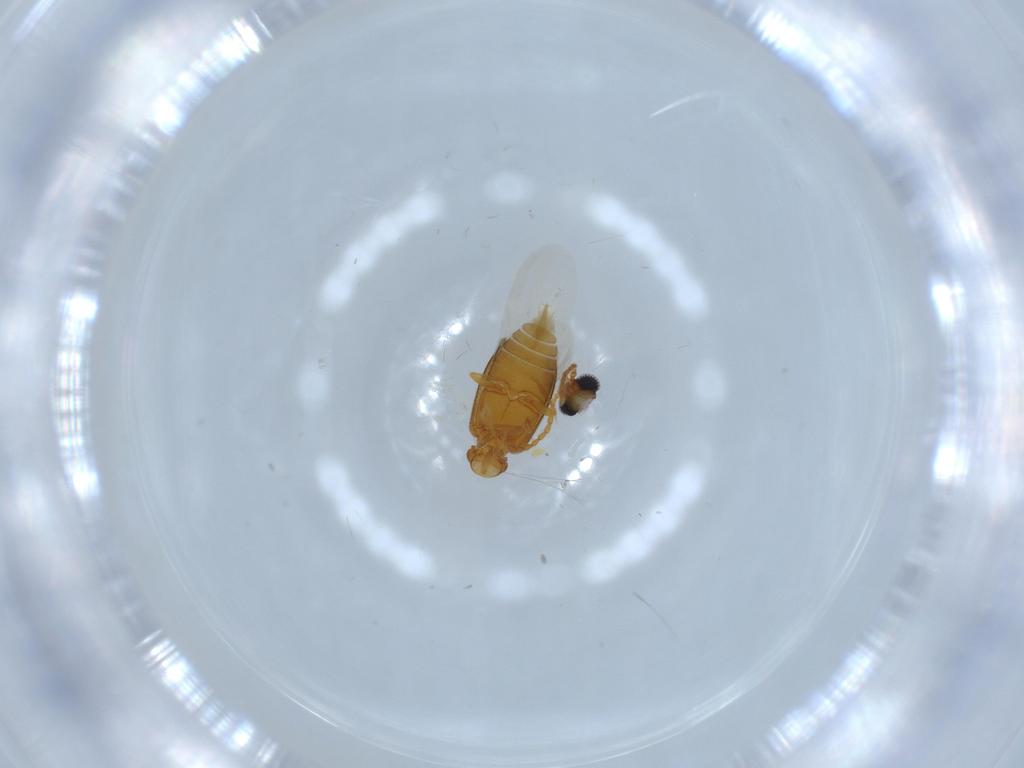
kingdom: Animalia
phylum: Arthropoda
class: Insecta
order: Coleoptera
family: Aderidae
